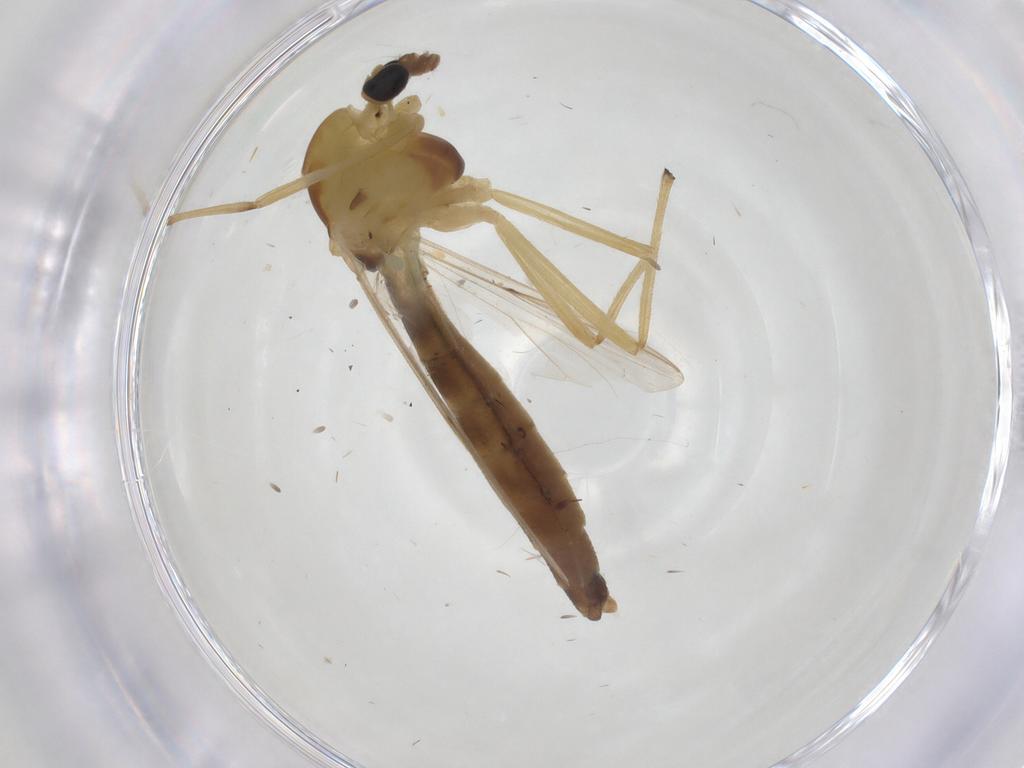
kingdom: Animalia
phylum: Arthropoda
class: Insecta
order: Diptera
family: Chironomidae
